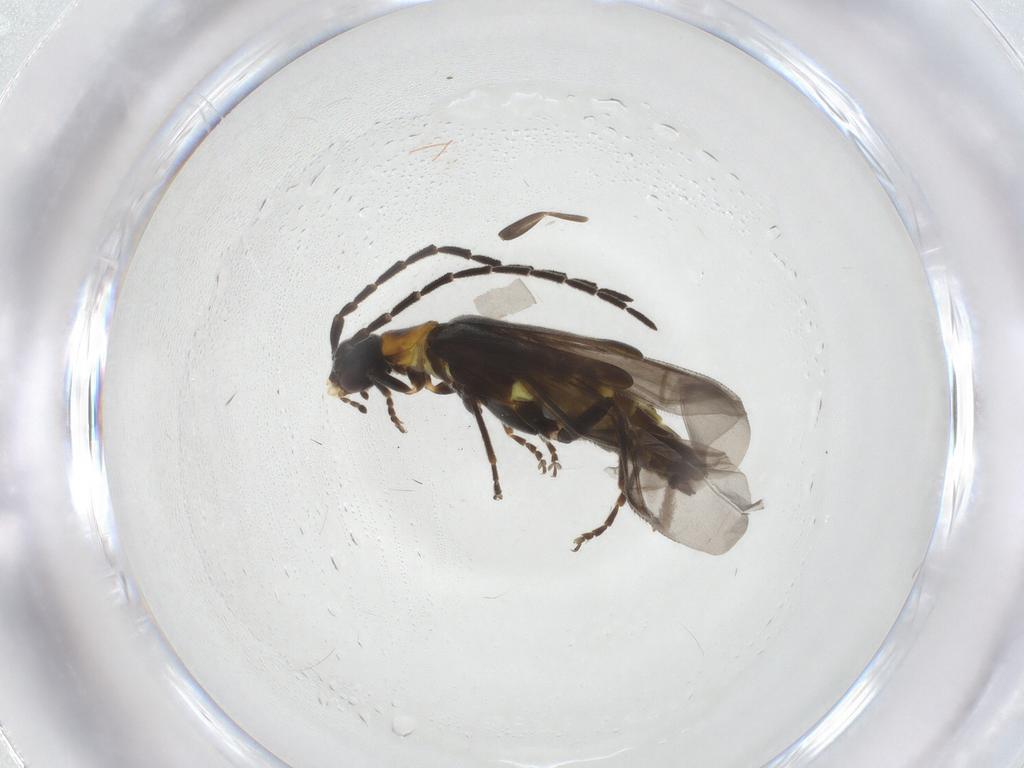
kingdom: Animalia
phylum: Arthropoda
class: Insecta
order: Coleoptera
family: Cantharidae
